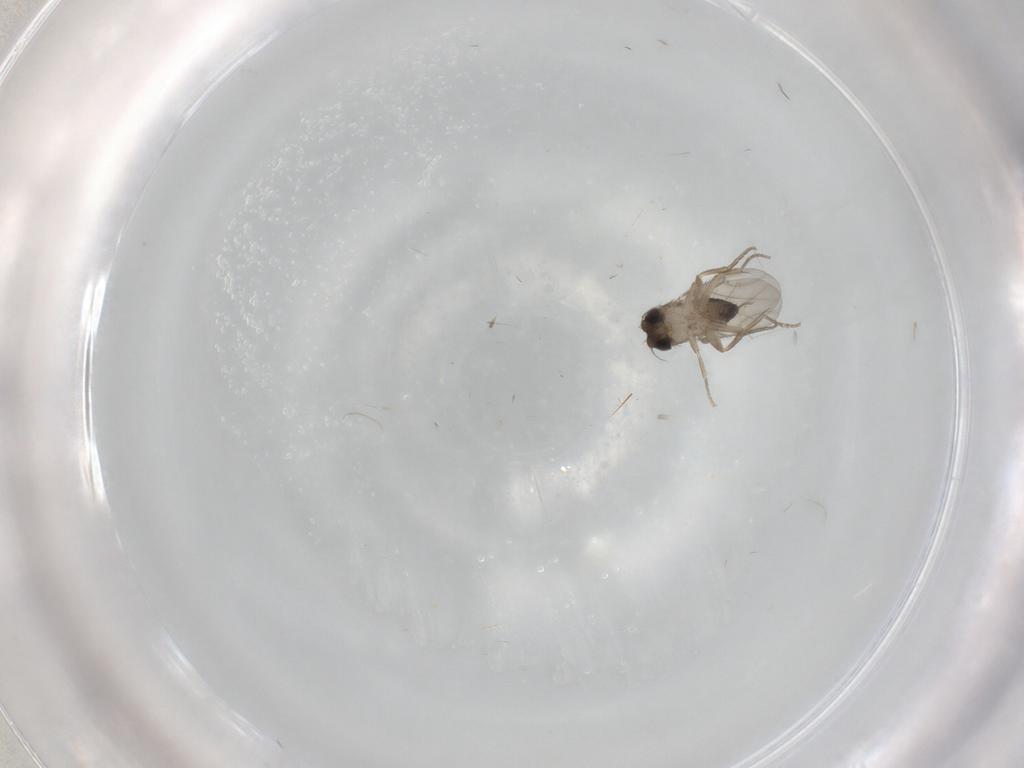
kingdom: Animalia
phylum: Arthropoda
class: Insecta
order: Diptera
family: Phoridae
